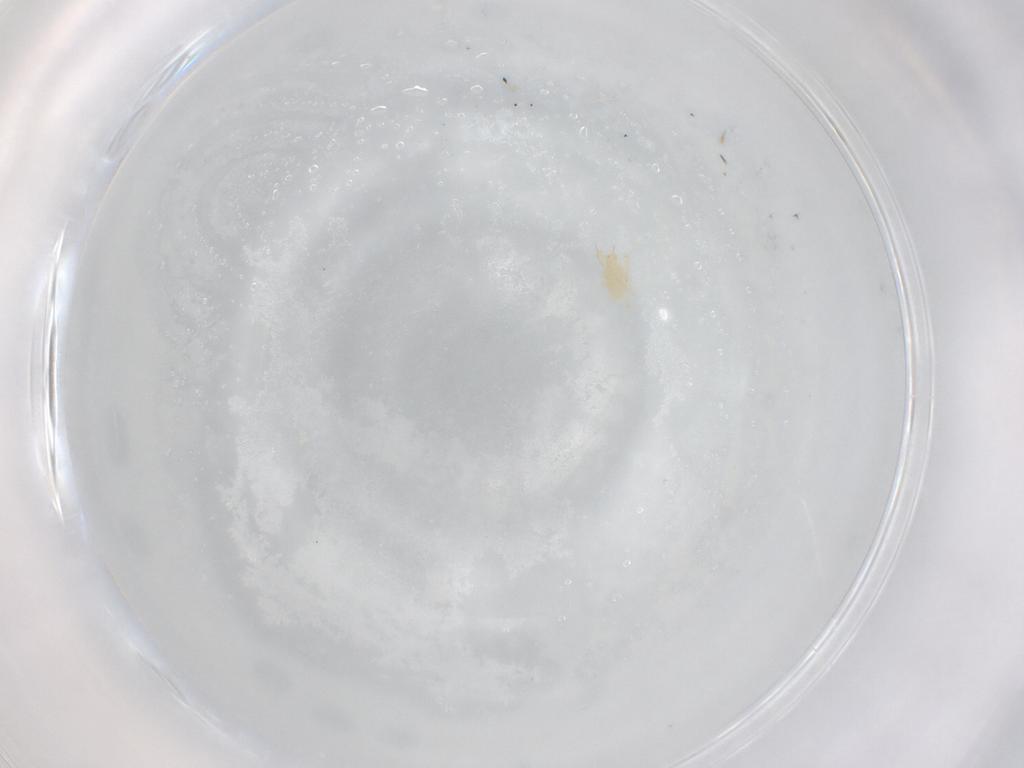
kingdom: Animalia
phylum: Arthropoda
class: Arachnida
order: Trombidiformes
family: Cunaxidae
